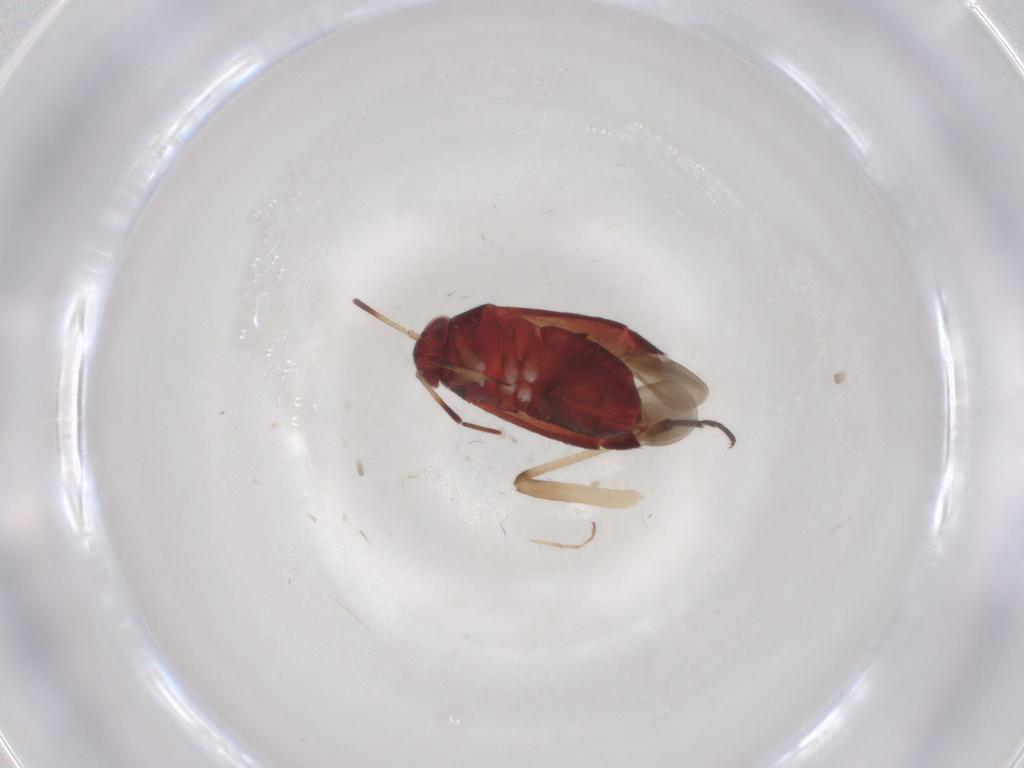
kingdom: Animalia
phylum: Arthropoda
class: Insecta
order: Hemiptera
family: Miridae
